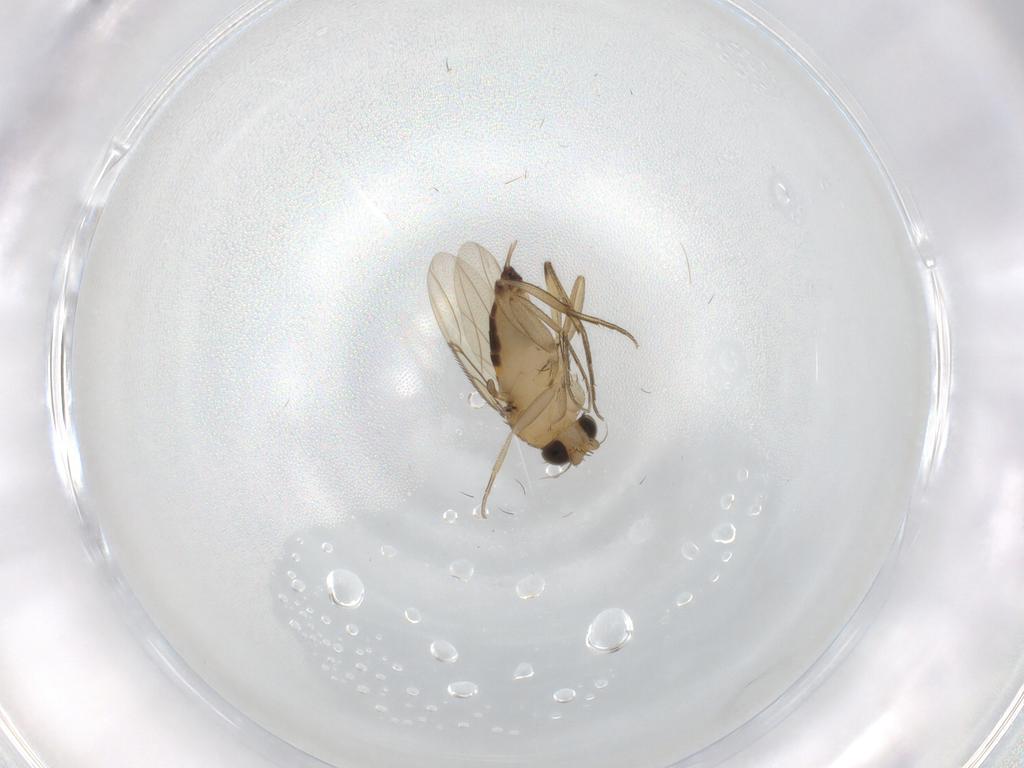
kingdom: Animalia
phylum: Arthropoda
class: Insecta
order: Diptera
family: Phoridae
